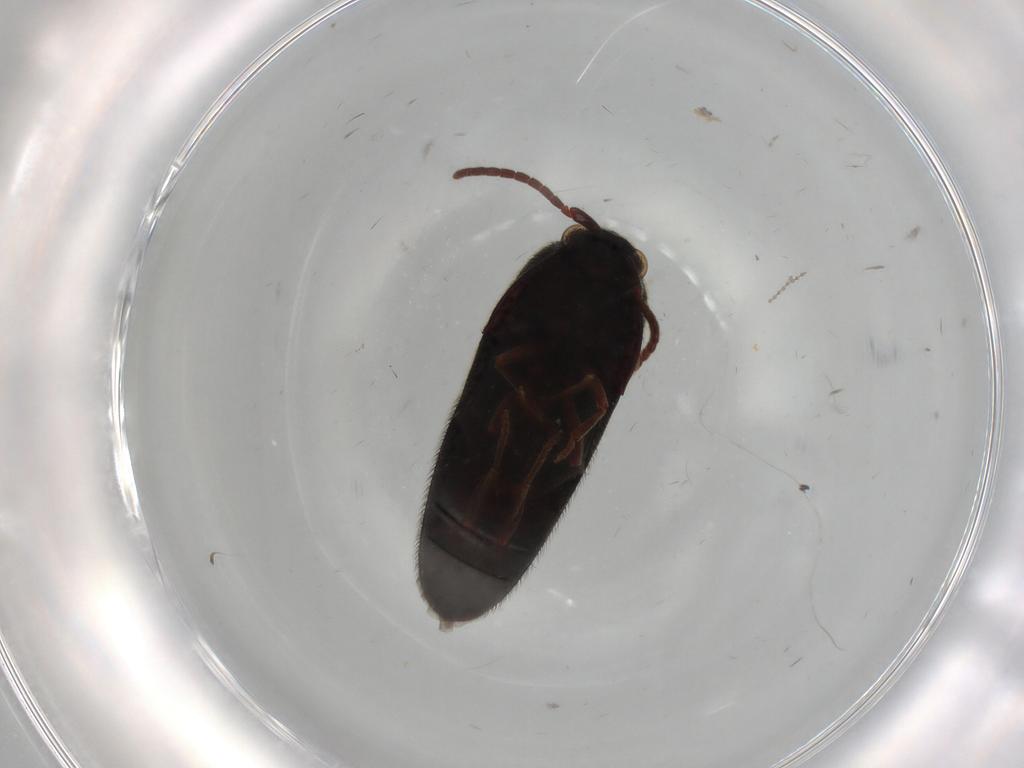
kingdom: Animalia
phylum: Arthropoda
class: Insecta
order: Coleoptera
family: Eucnemidae
